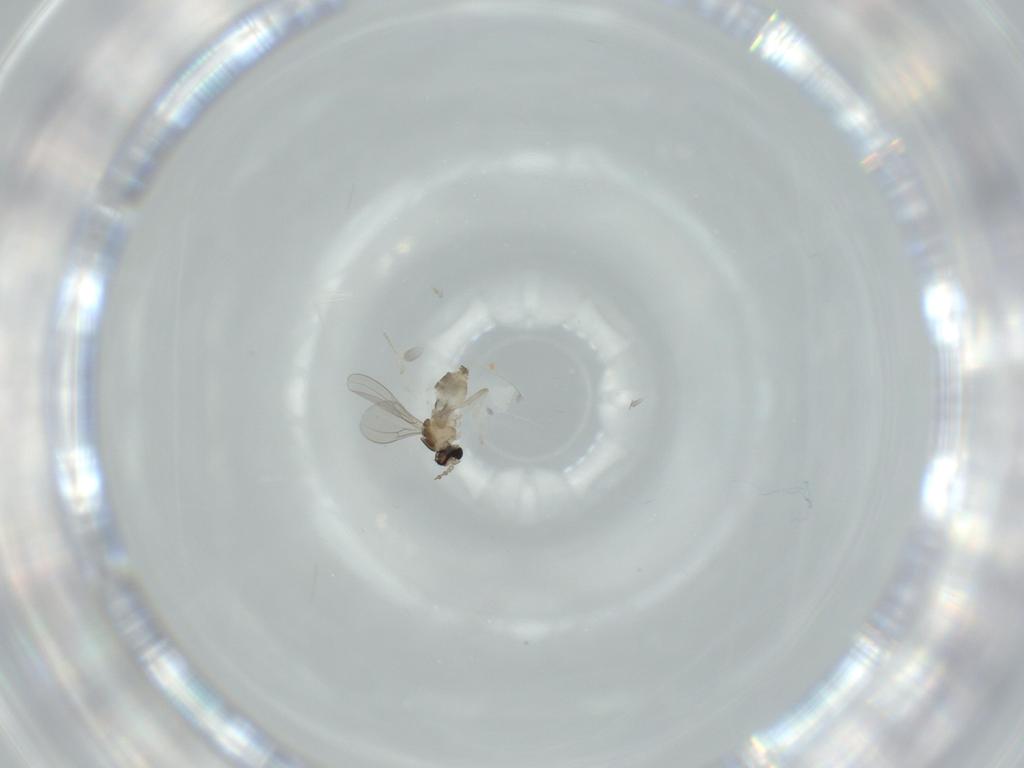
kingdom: Animalia
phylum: Arthropoda
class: Insecta
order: Diptera
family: Cecidomyiidae
